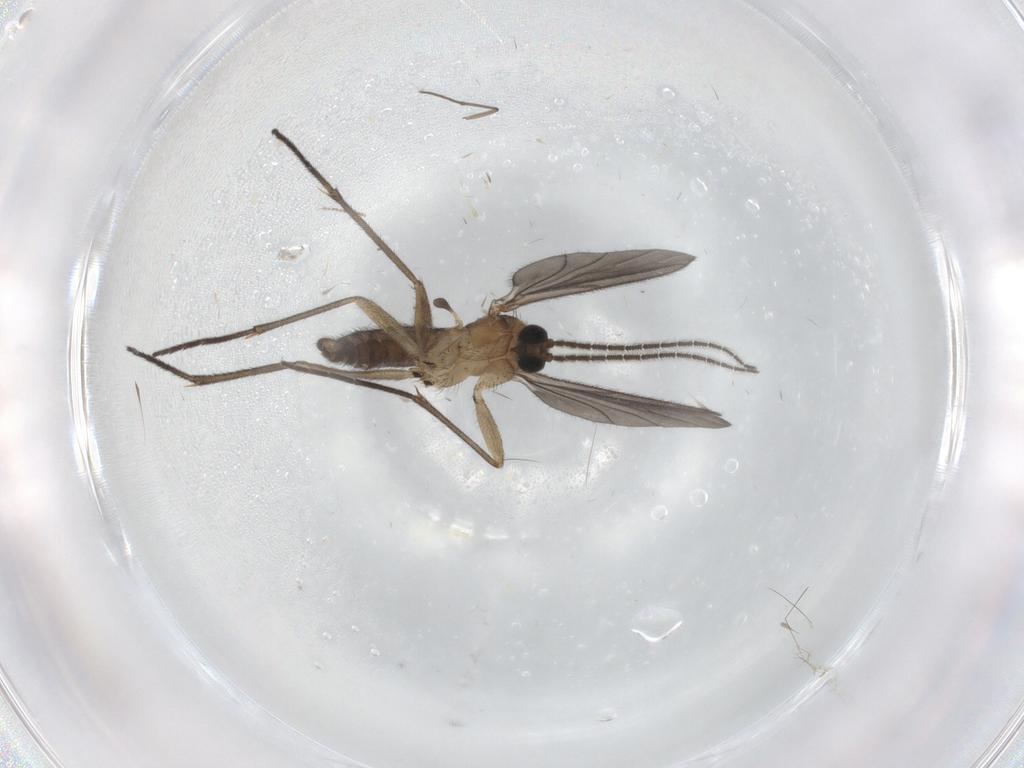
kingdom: Animalia
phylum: Arthropoda
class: Insecta
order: Diptera
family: Sciaridae
